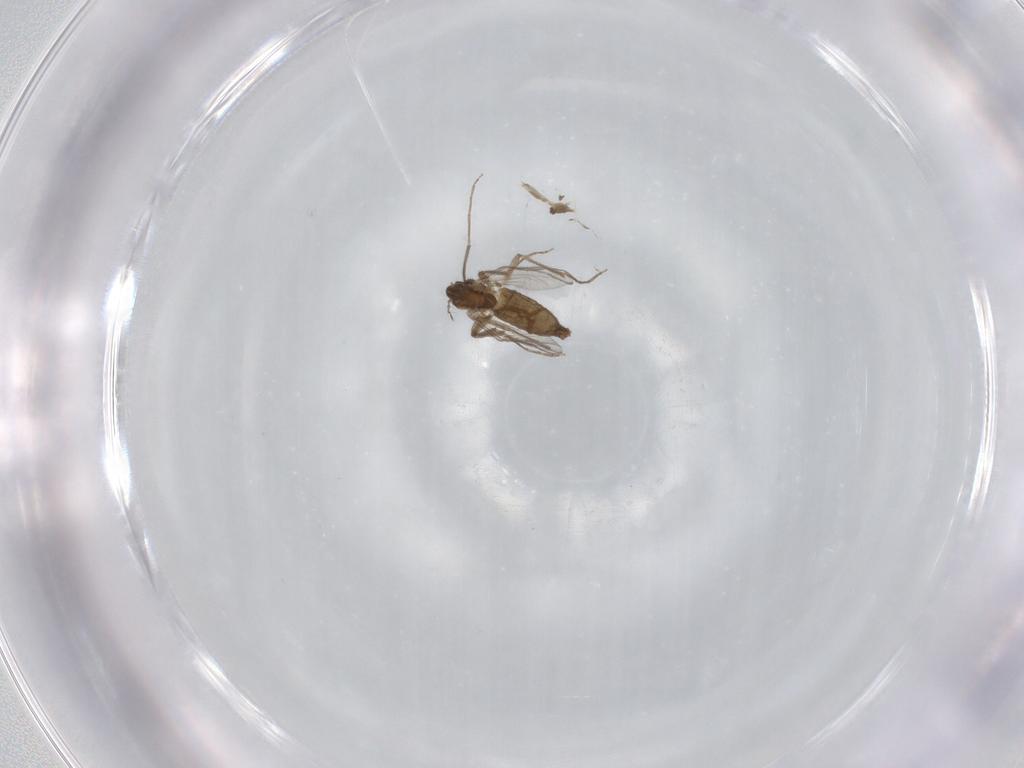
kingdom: Animalia
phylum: Arthropoda
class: Insecta
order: Diptera
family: Chironomidae
